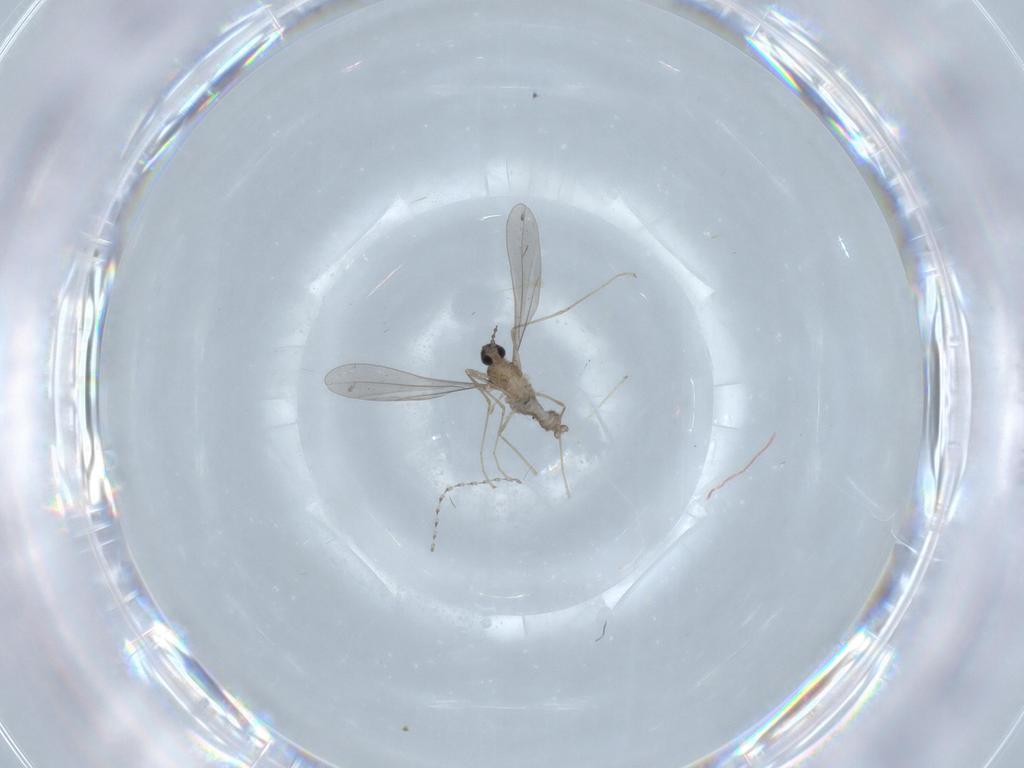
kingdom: Animalia
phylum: Arthropoda
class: Insecta
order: Diptera
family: Cecidomyiidae
